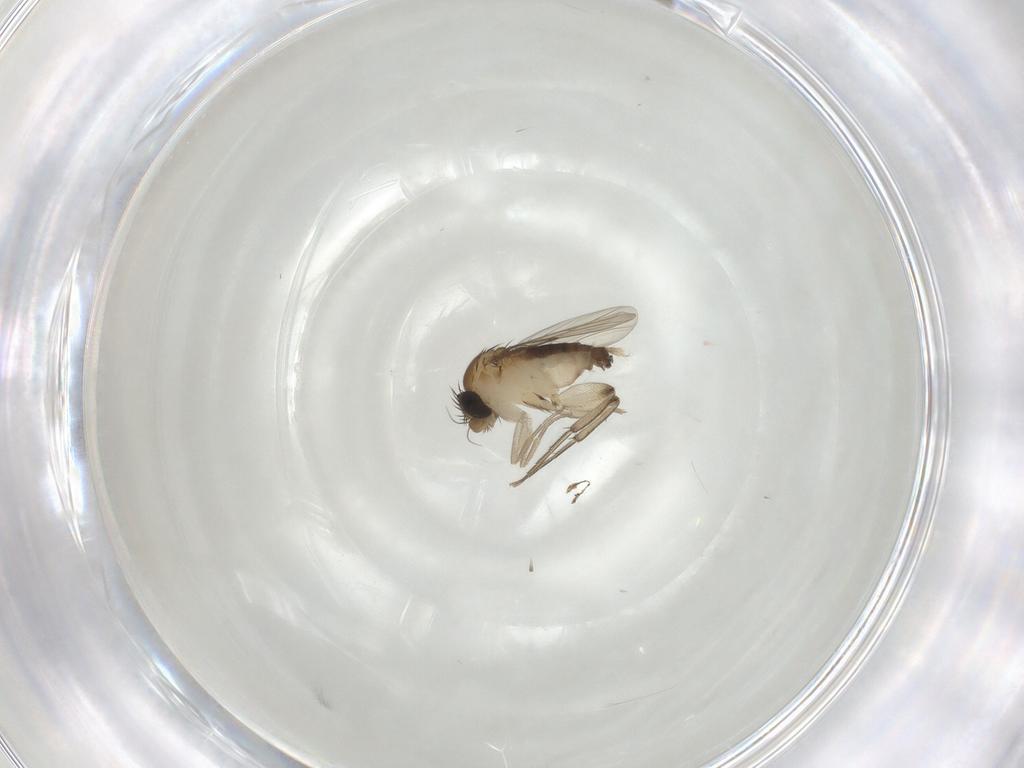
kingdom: Animalia
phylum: Arthropoda
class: Insecta
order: Diptera
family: Phoridae
